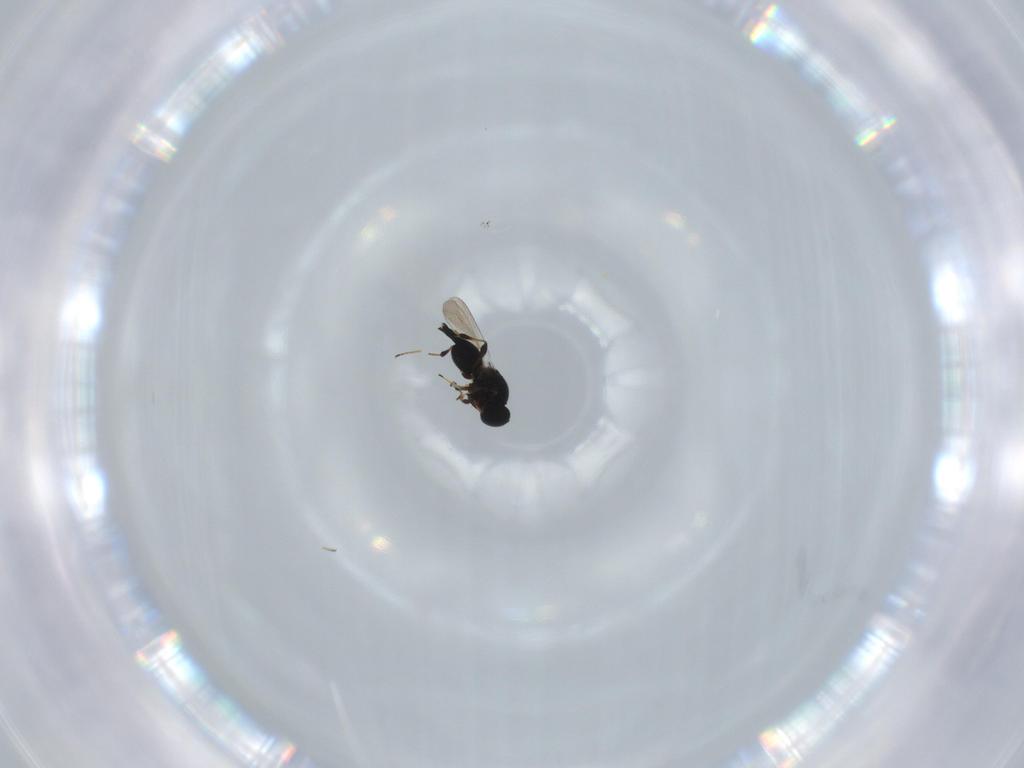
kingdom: Animalia
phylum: Arthropoda
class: Insecta
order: Hymenoptera
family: Platygastridae
